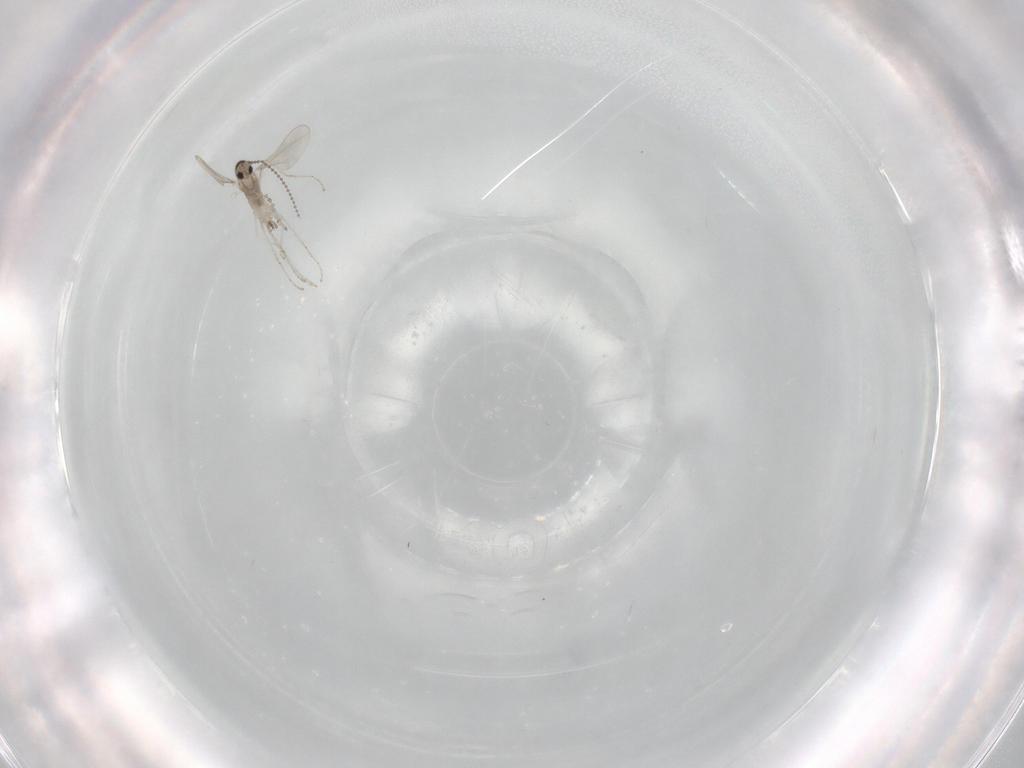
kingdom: Animalia
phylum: Arthropoda
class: Insecta
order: Diptera
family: Cecidomyiidae
